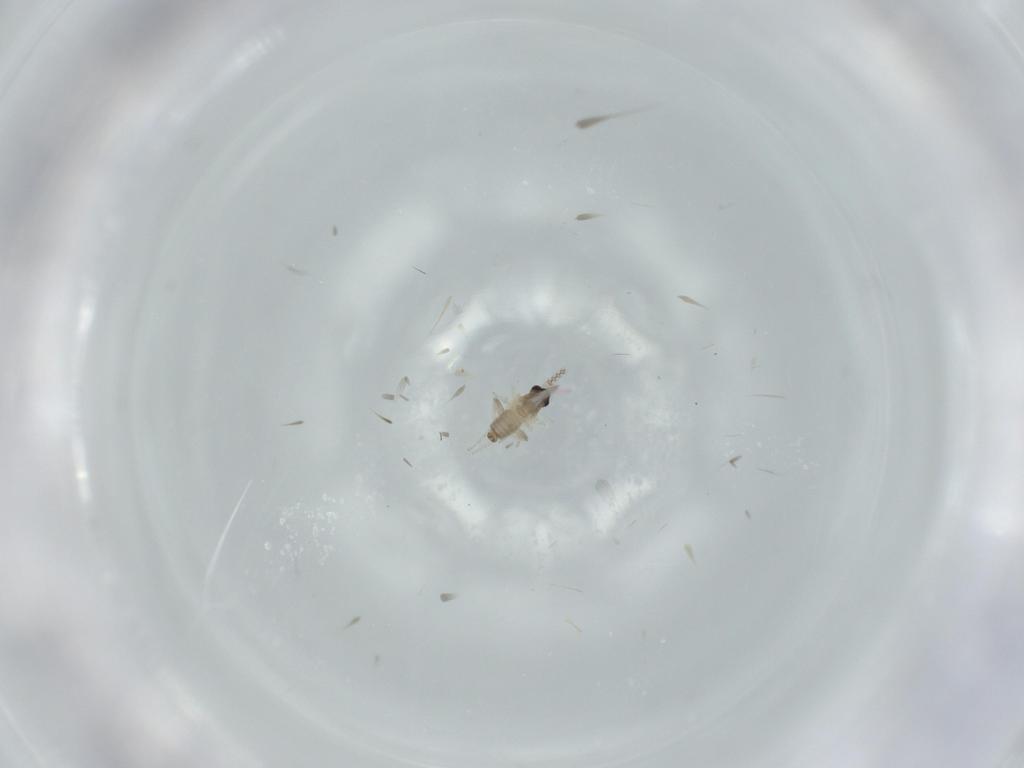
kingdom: Animalia
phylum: Arthropoda
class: Insecta
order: Diptera
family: Cecidomyiidae
